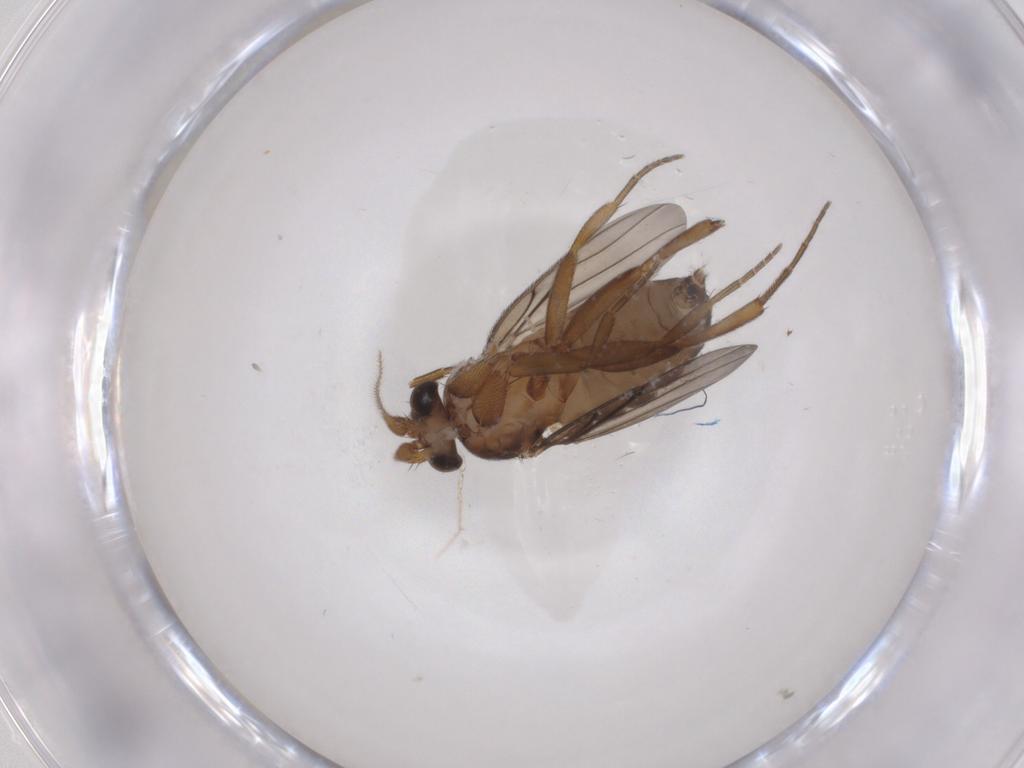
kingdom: Animalia
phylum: Arthropoda
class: Insecta
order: Diptera
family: Phoridae
